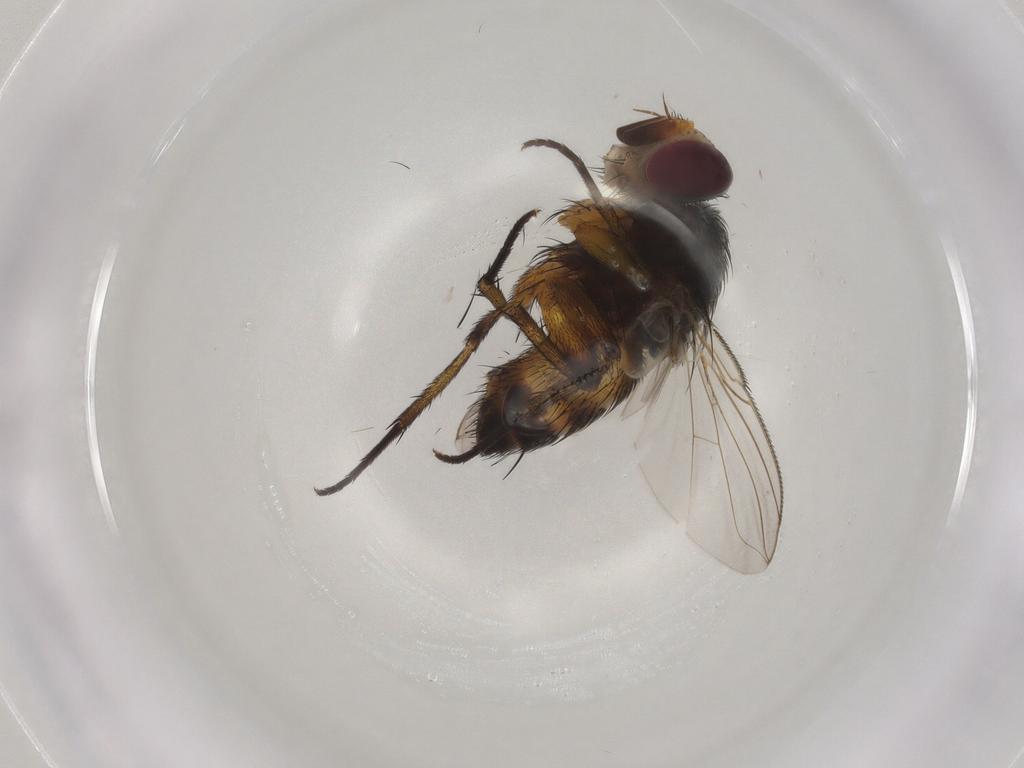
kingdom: Animalia
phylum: Arthropoda
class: Insecta
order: Diptera
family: Tachinidae
